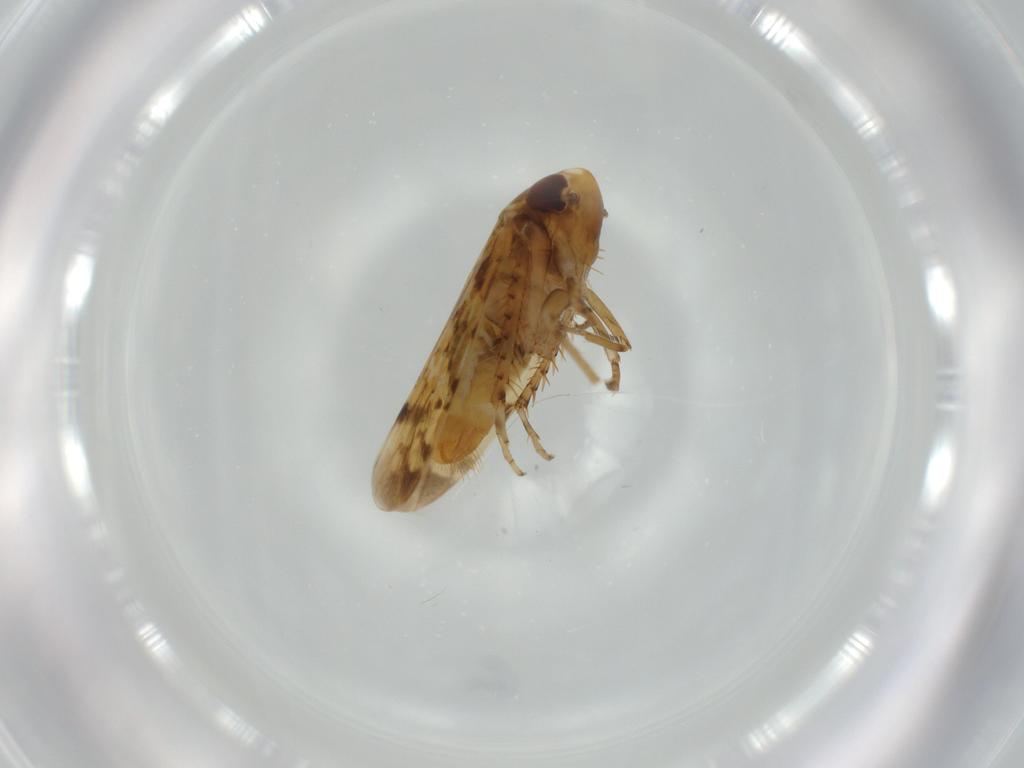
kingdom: Animalia
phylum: Arthropoda
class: Insecta
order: Hemiptera
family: Cicadellidae
